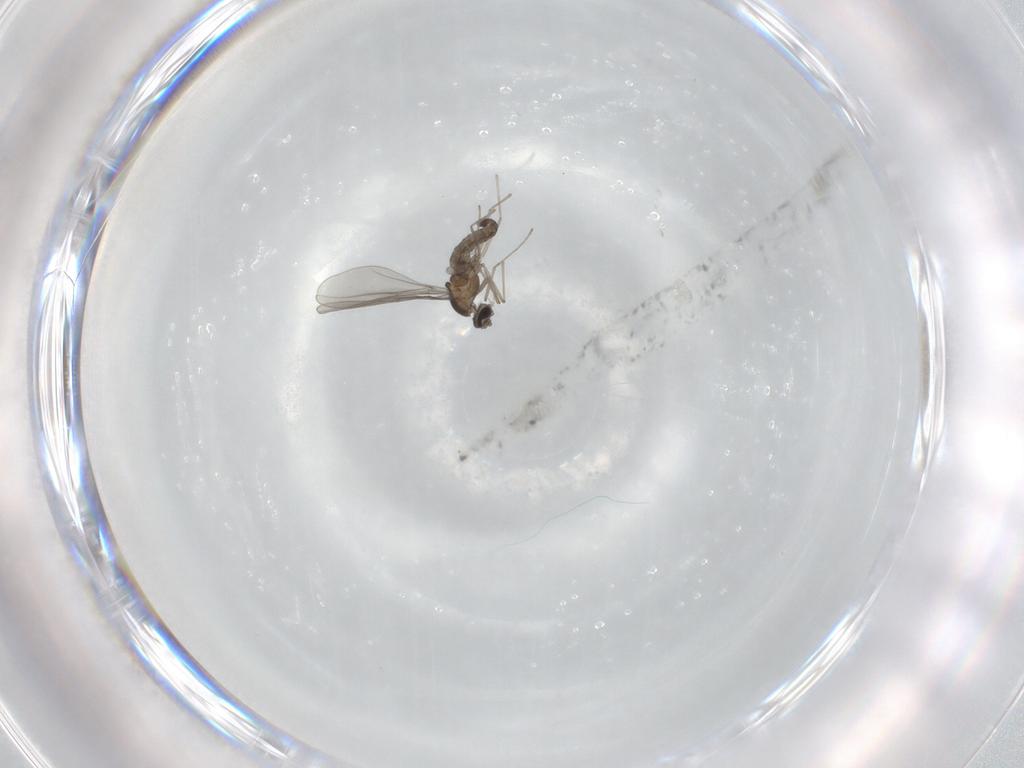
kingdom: Animalia
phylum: Arthropoda
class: Insecta
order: Diptera
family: Cecidomyiidae
